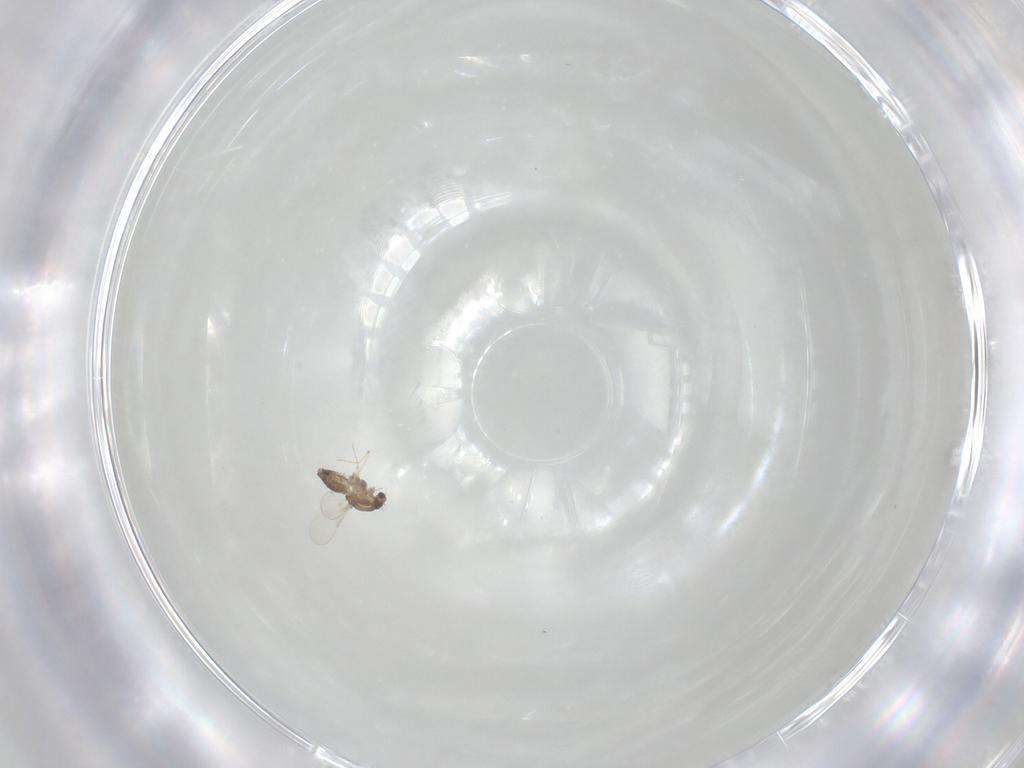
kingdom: Animalia
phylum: Arthropoda
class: Insecta
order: Diptera
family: Chironomidae
